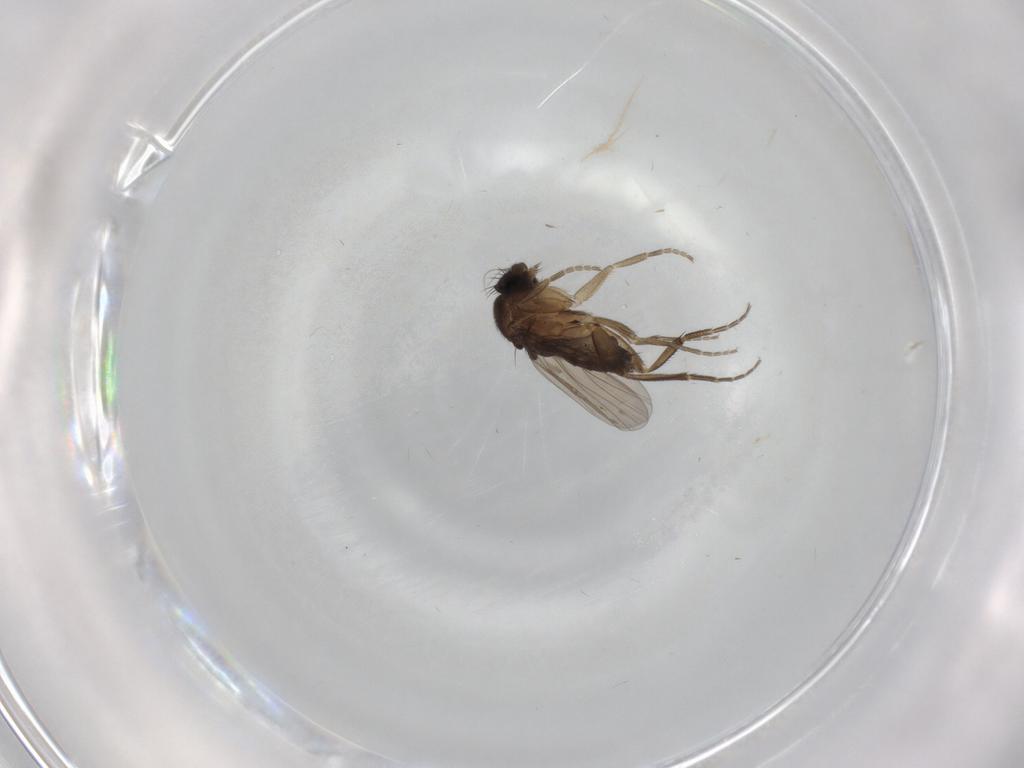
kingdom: Animalia
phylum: Arthropoda
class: Insecta
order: Diptera
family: Phoridae
